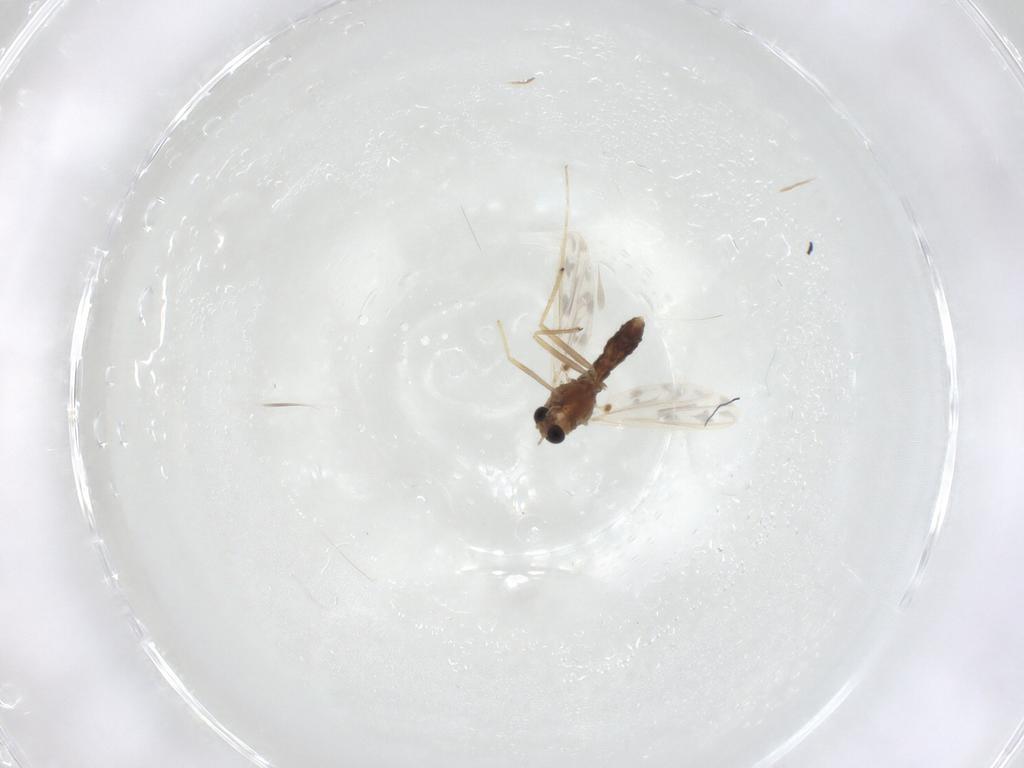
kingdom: Animalia
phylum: Arthropoda
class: Insecta
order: Diptera
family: Chironomidae
